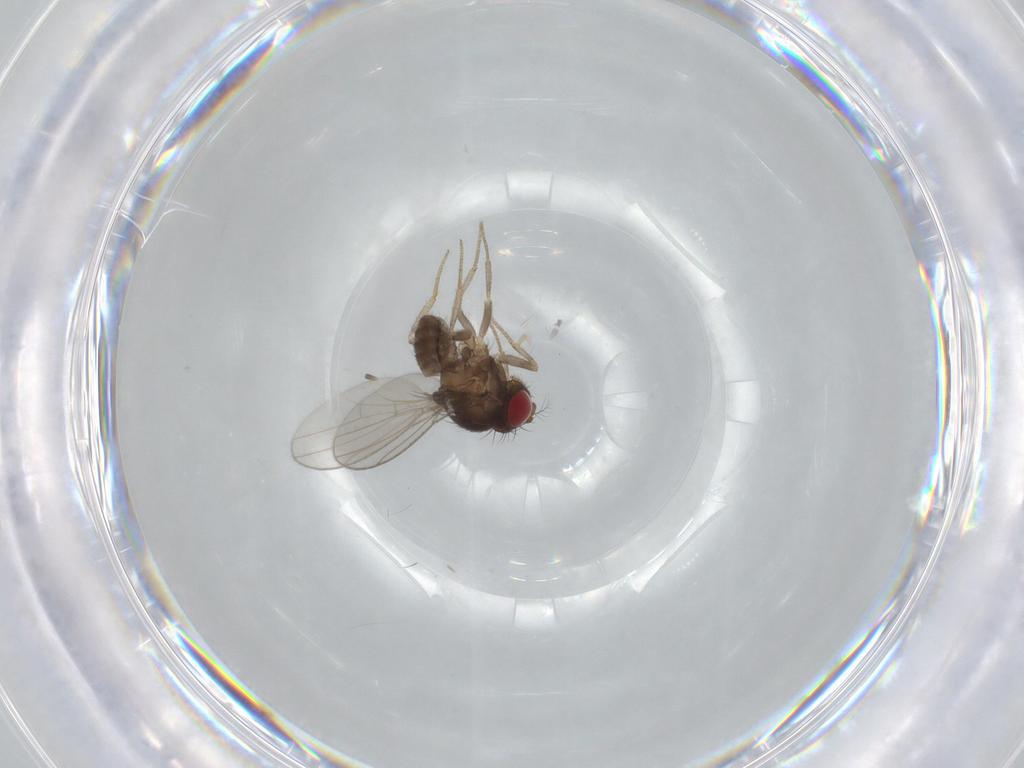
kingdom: Animalia
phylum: Arthropoda
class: Insecta
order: Diptera
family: Drosophilidae
